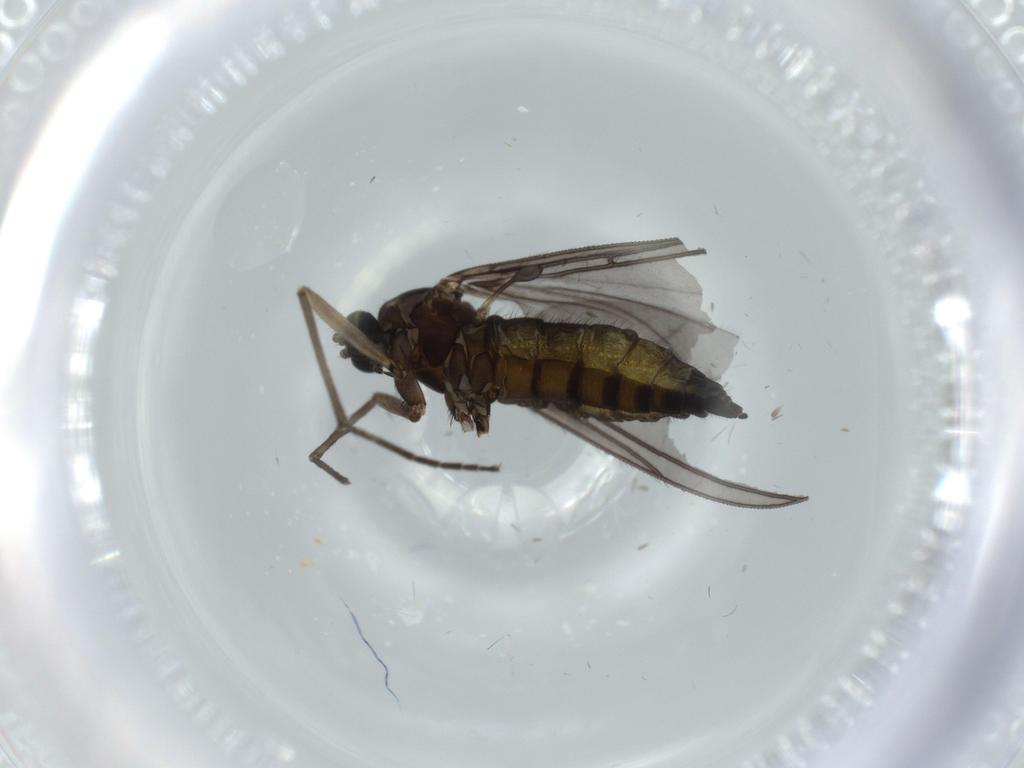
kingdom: Animalia
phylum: Arthropoda
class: Insecta
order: Diptera
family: Sciaridae
